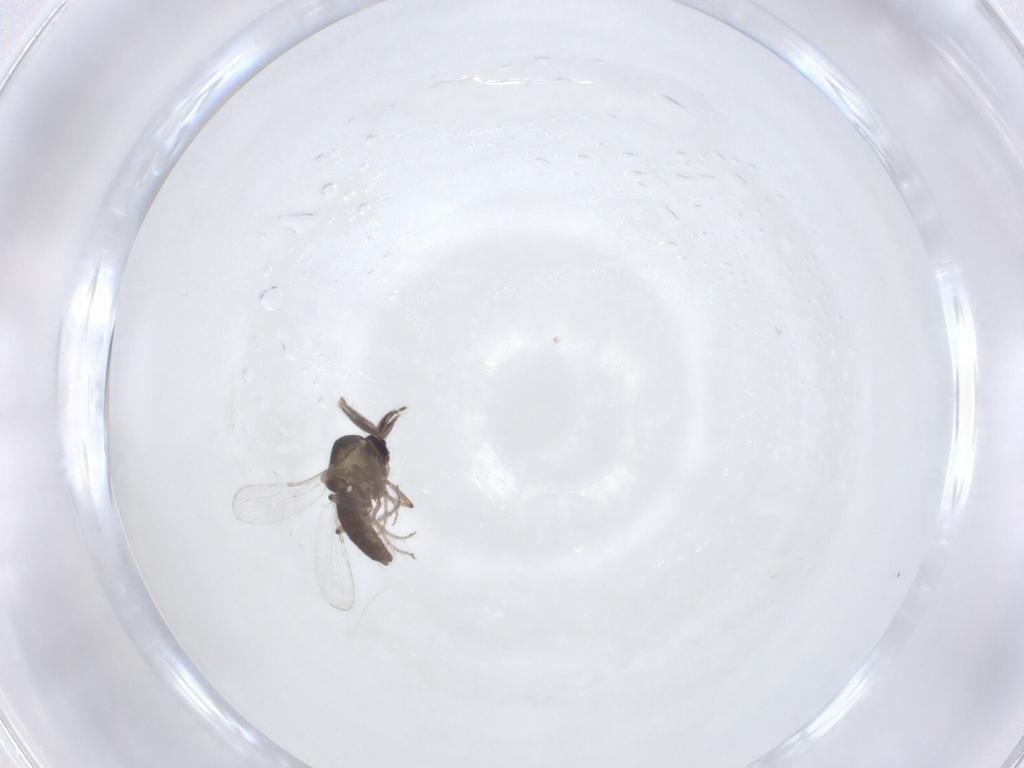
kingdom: Animalia
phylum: Arthropoda
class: Insecta
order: Diptera
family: Ceratopogonidae
